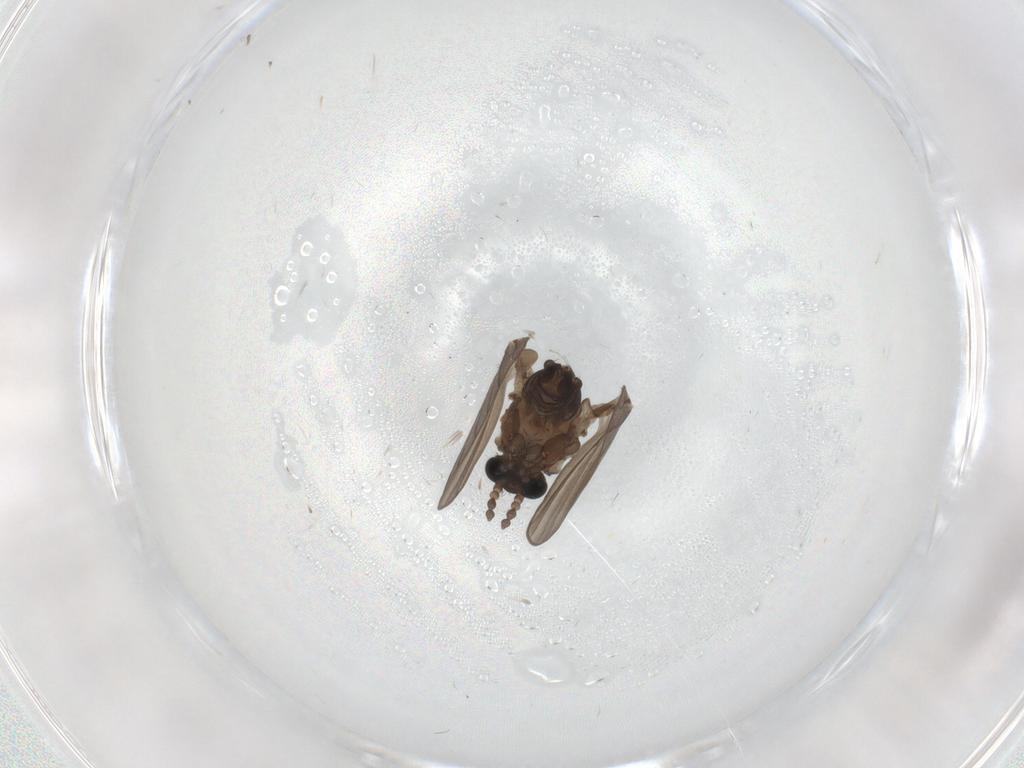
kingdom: Animalia
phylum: Arthropoda
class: Insecta
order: Diptera
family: Psychodidae
